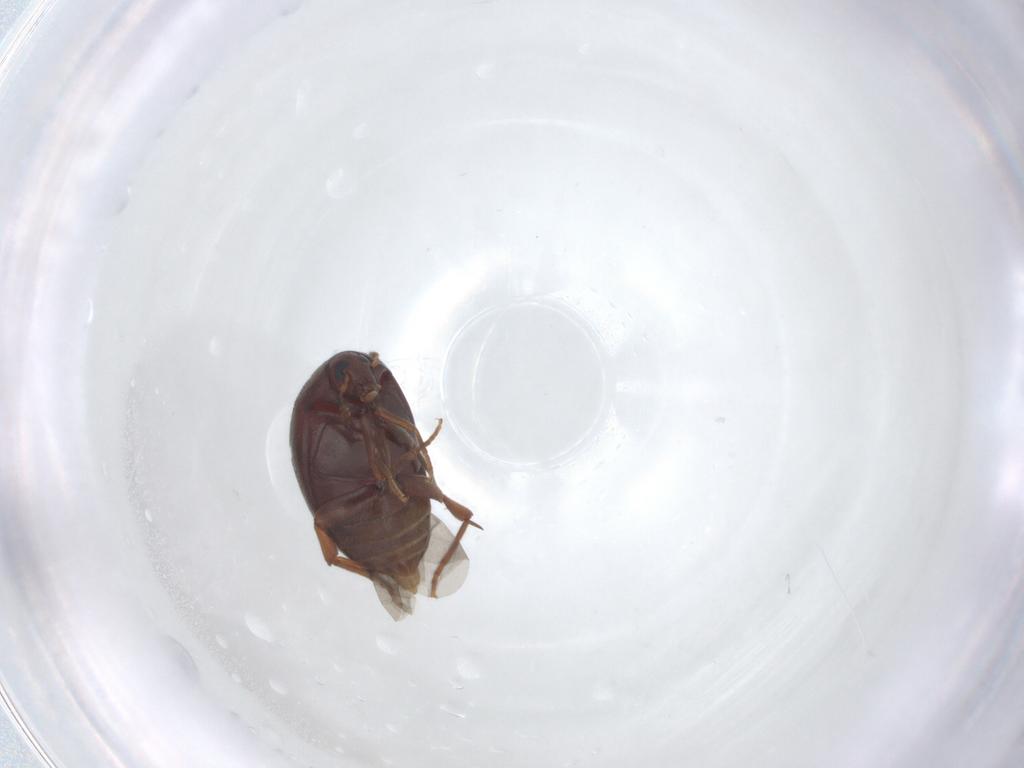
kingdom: Animalia
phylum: Arthropoda
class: Insecta
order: Coleoptera
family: Melandryidae
